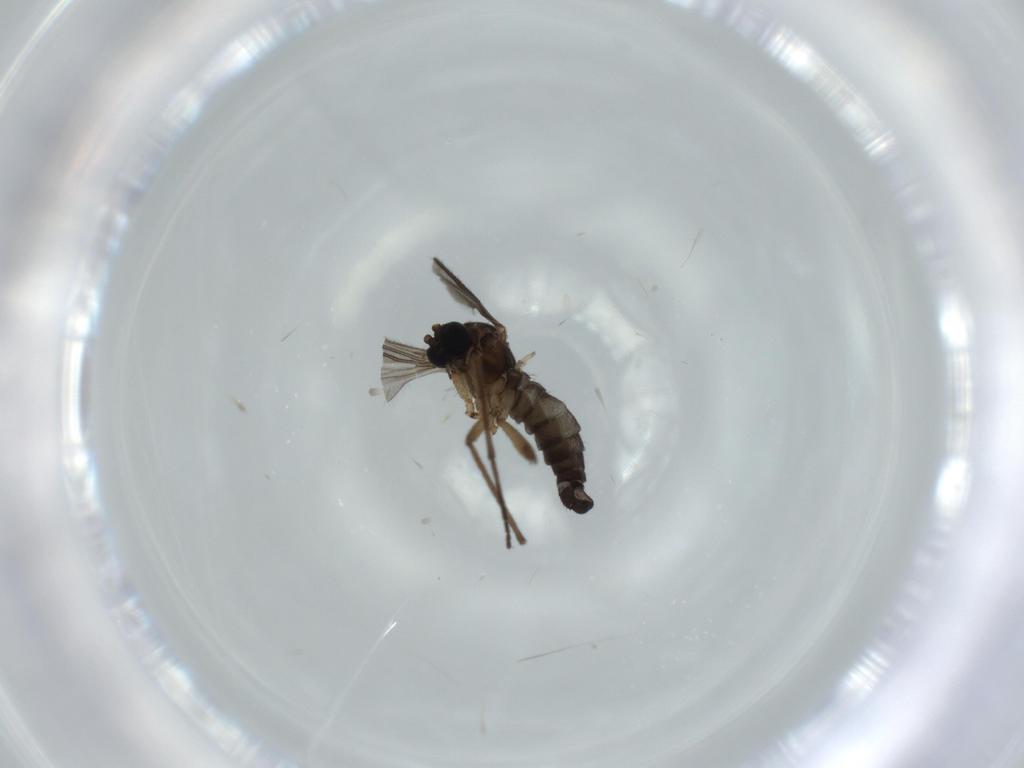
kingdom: Animalia
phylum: Arthropoda
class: Insecta
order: Diptera
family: Sciaridae
